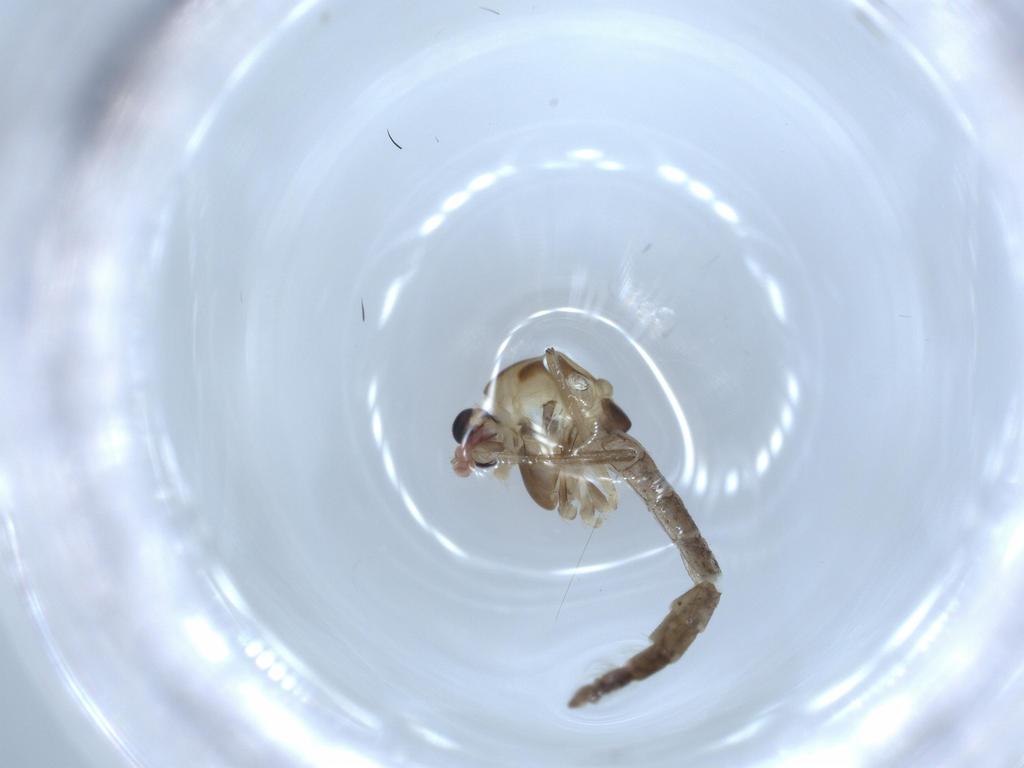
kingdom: Animalia
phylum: Arthropoda
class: Insecta
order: Diptera
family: Chironomidae
